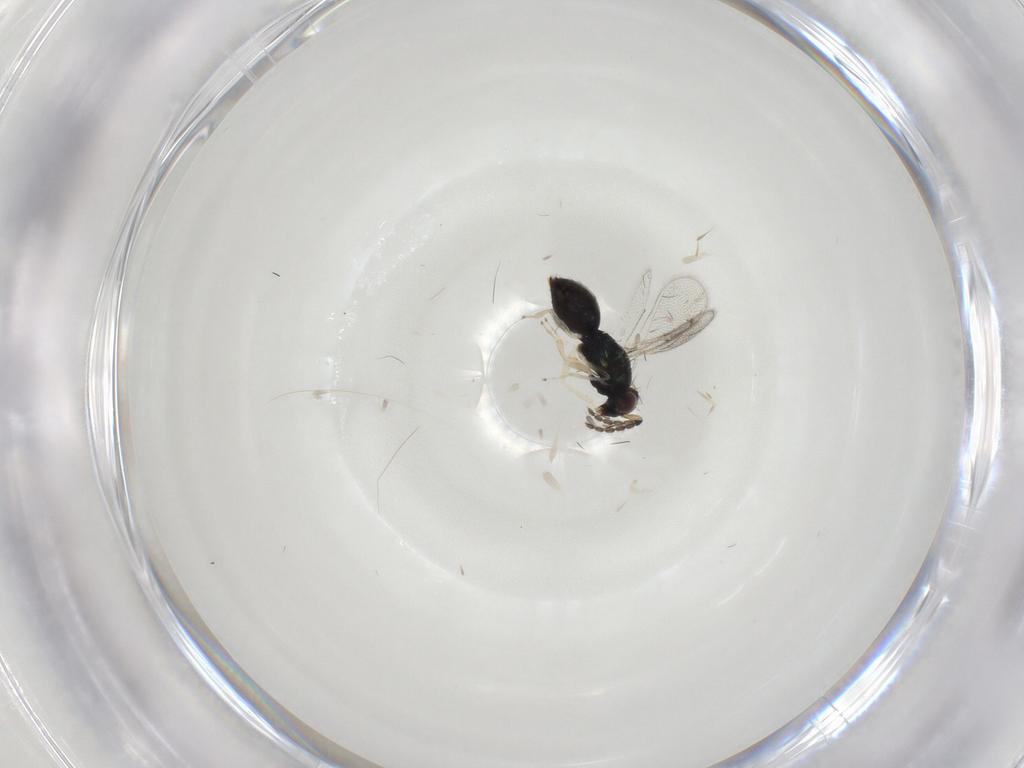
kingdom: Animalia
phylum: Arthropoda
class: Insecta
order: Hymenoptera
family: Eulophidae
